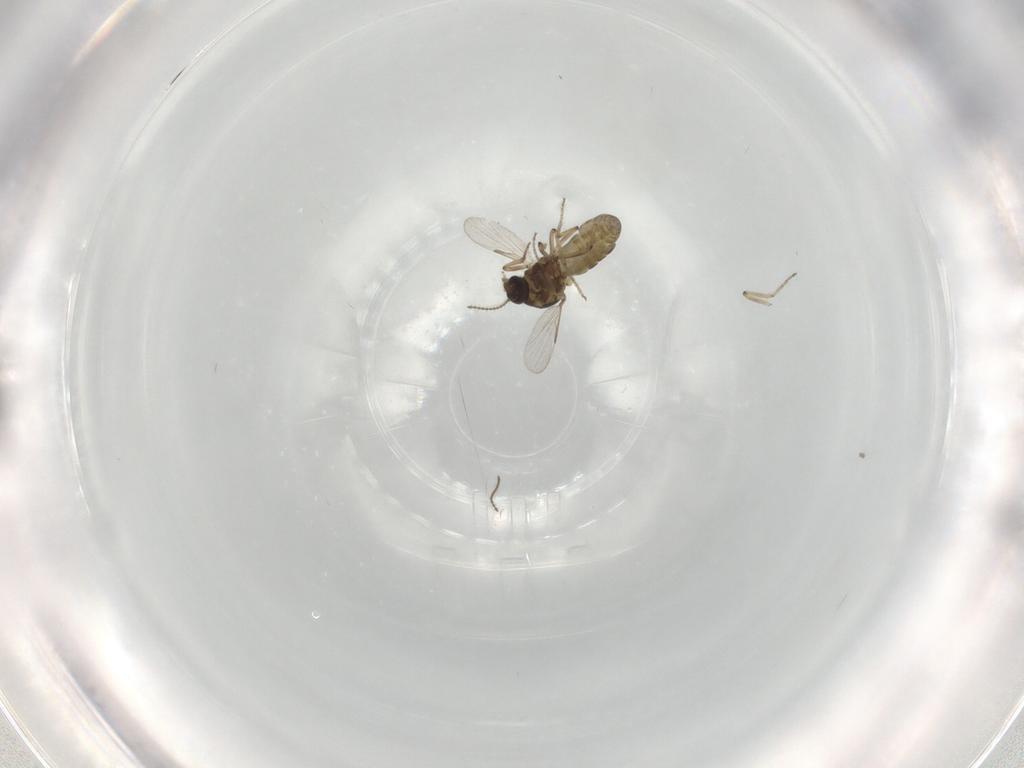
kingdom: Animalia
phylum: Arthropoda
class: Insecta
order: Diptera
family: Ceratopogonidae
